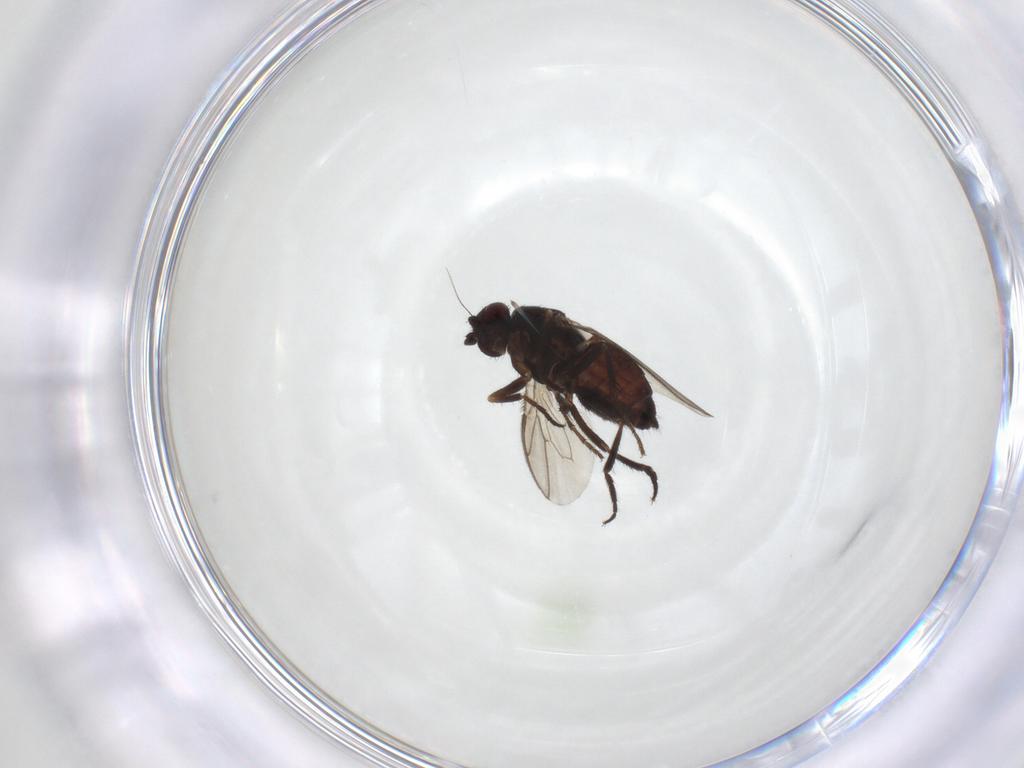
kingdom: Animalia
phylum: Arthropoda
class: Insecta
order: Diptera
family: Sphaeroceridae
